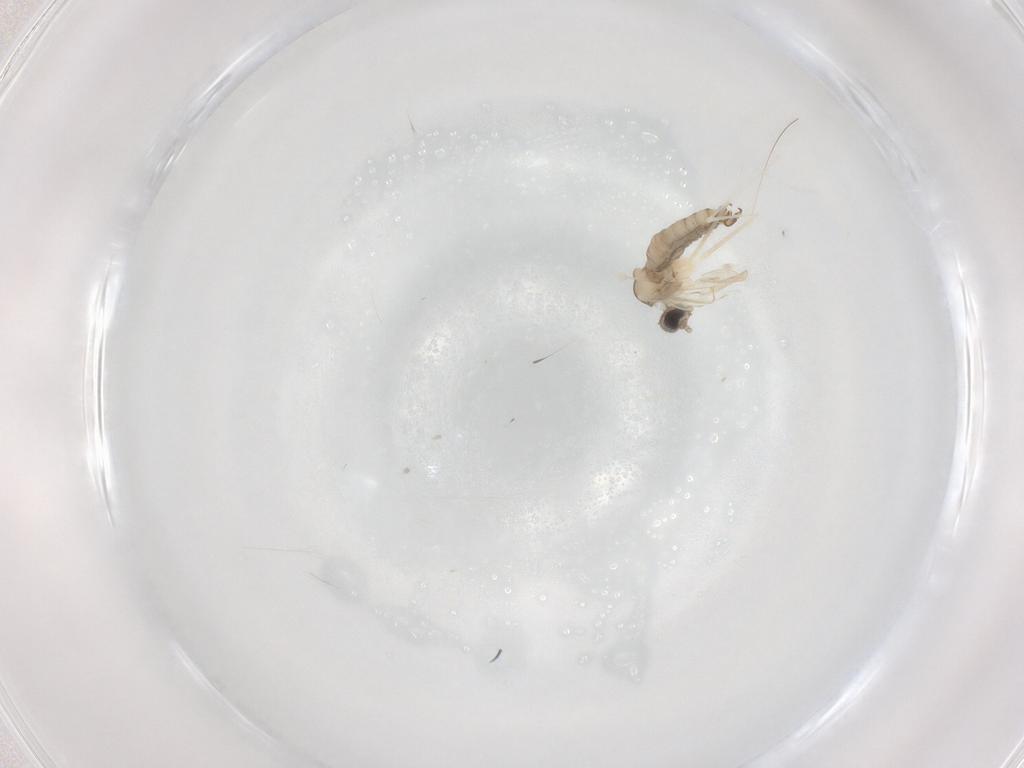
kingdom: Animalia
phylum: Arthropoda
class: Insecta
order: Diptera
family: Cecidomyiidae
